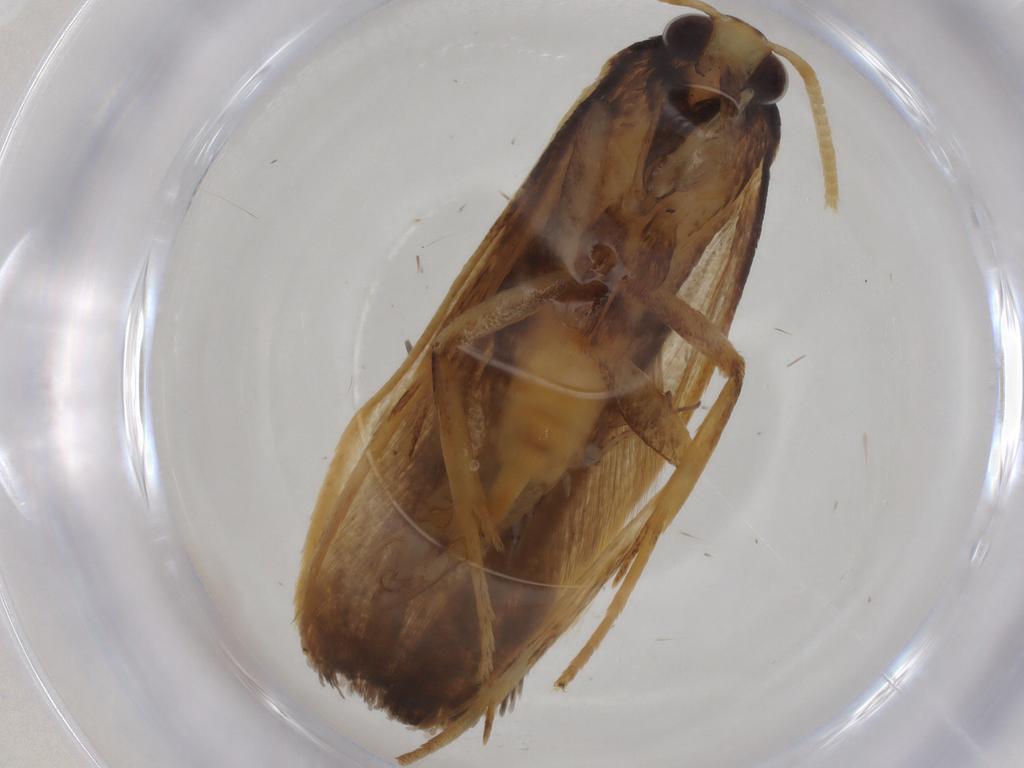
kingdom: Animalia
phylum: Arthropoda
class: Insecta
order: Lepidoptera
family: Lecithoceridae
